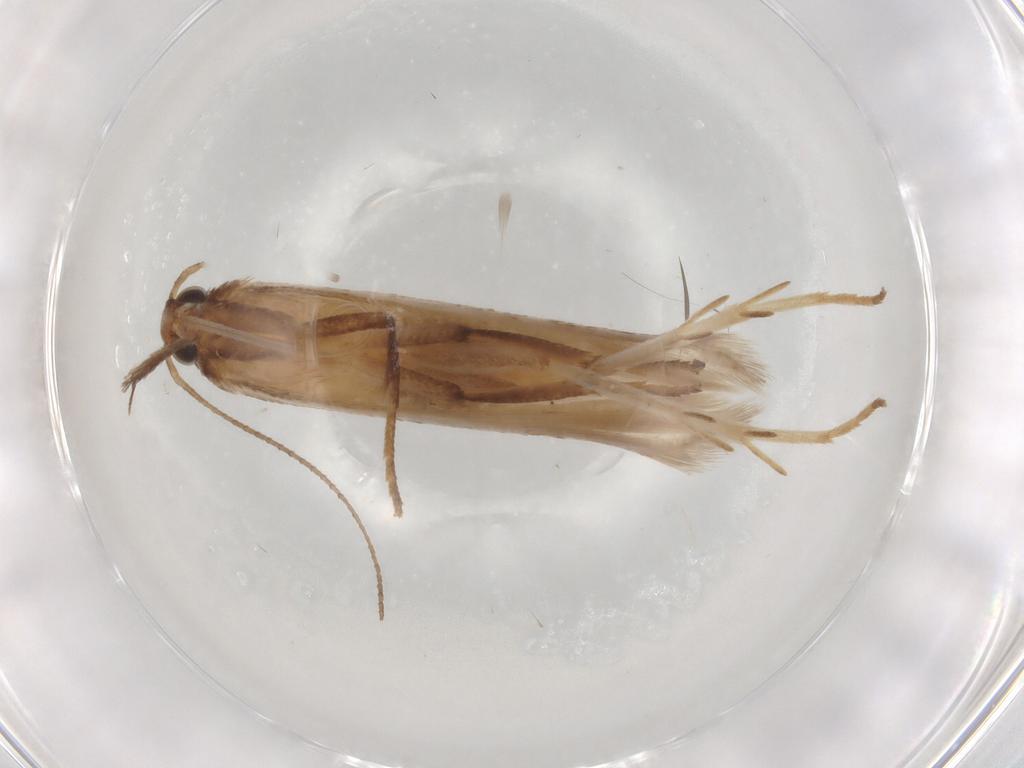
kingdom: Animalia
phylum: Arthropoda
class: Insecta
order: Lepidoptera
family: Gelechiidae
